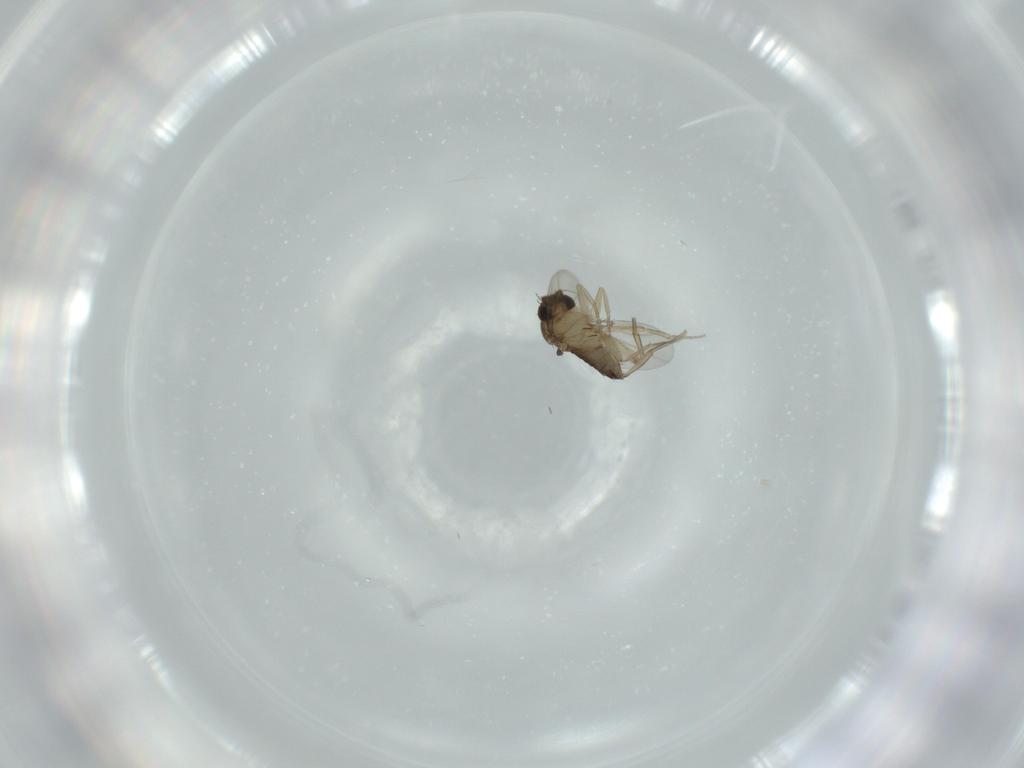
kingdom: Animalia
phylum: Arthropoda
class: Insecta
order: Diptera
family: Phoridae
